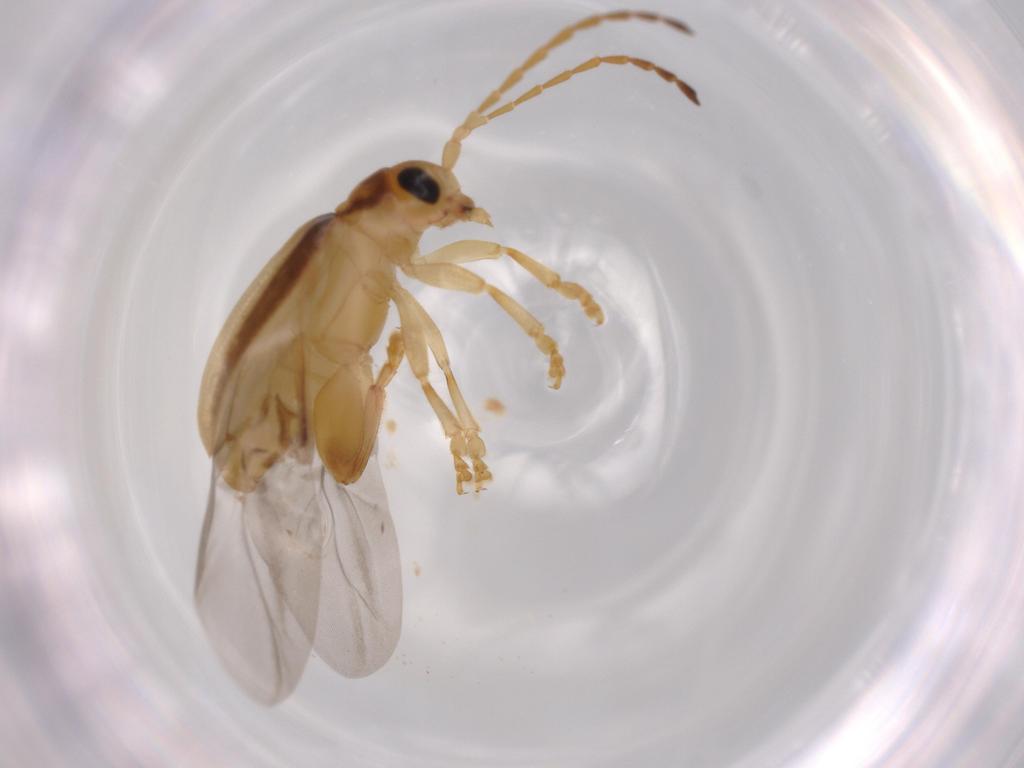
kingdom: Animalia
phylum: Arthropoda
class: Insecta
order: Coleoptera
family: Chrysomelidae
